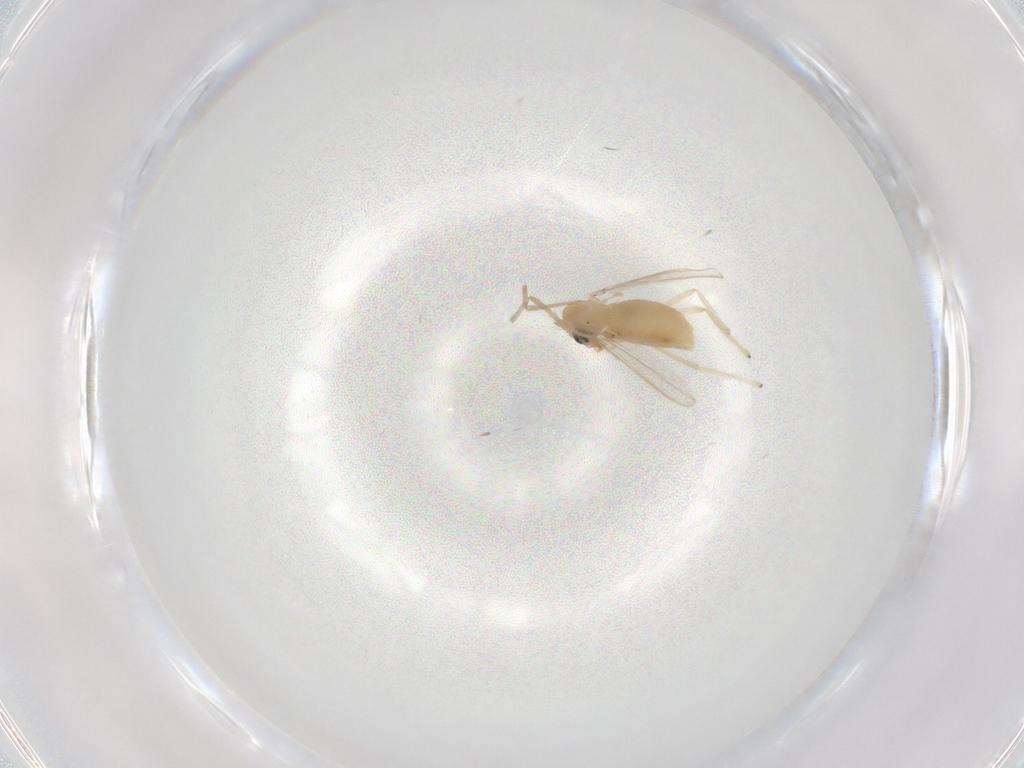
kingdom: Animalia
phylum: Arthropoda
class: Insecta
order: Diptera
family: Chironomidae
